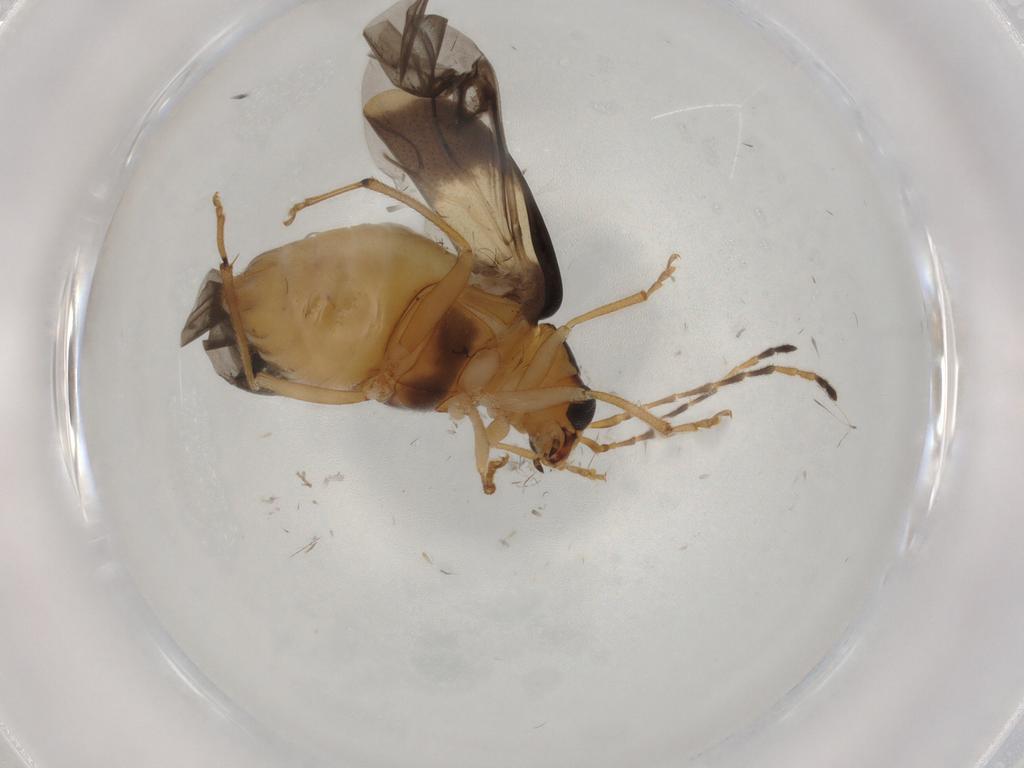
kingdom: Animalia
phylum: Arthropoda
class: Insecta
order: Coleoptera
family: Chrysomelidae
